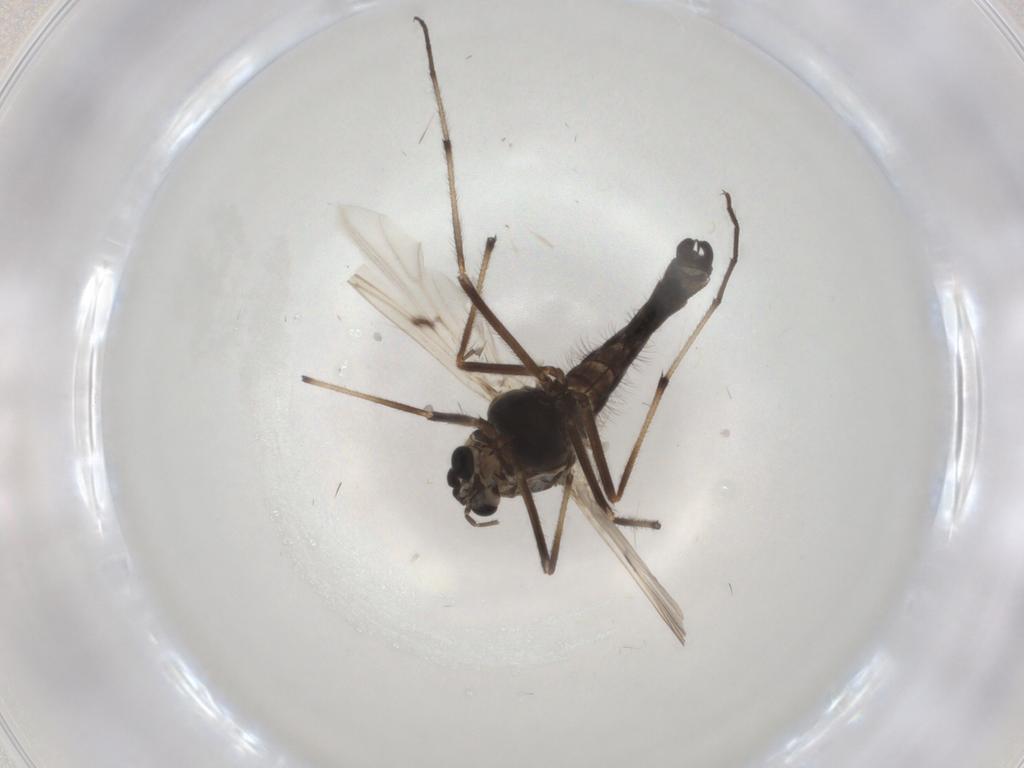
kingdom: Animalia
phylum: Arthropoda
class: Insecta
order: Diptera
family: Chironomidae
